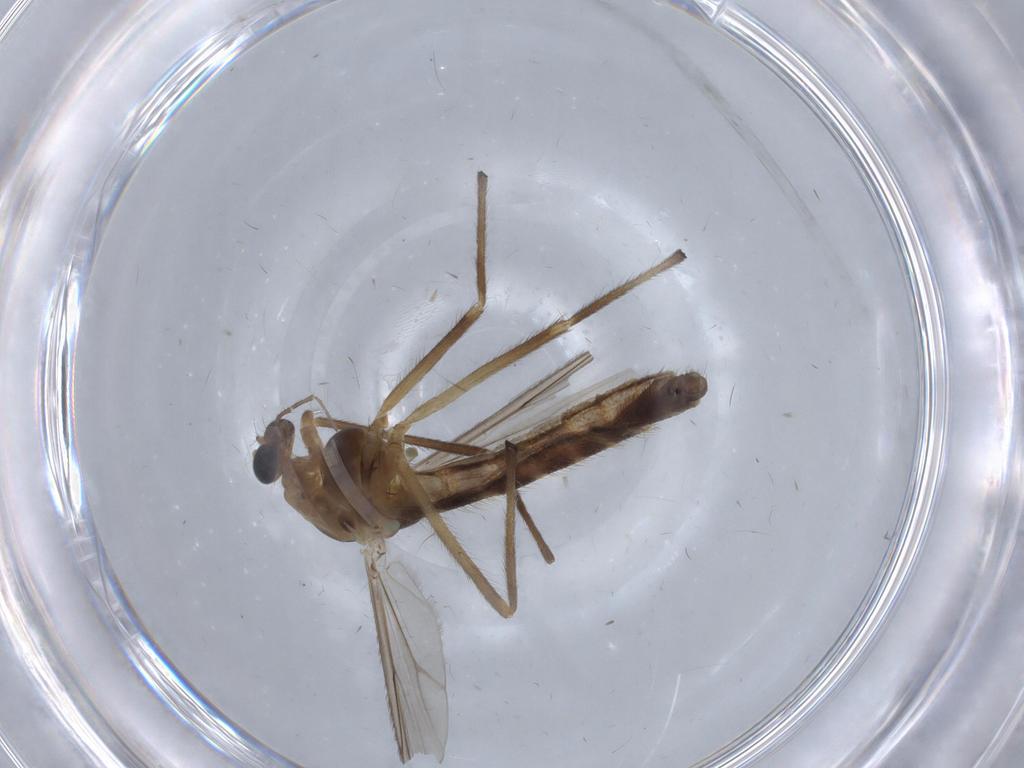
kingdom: Animalia
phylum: Arthropoda
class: Insecta
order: Diptera
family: Chironomidae
